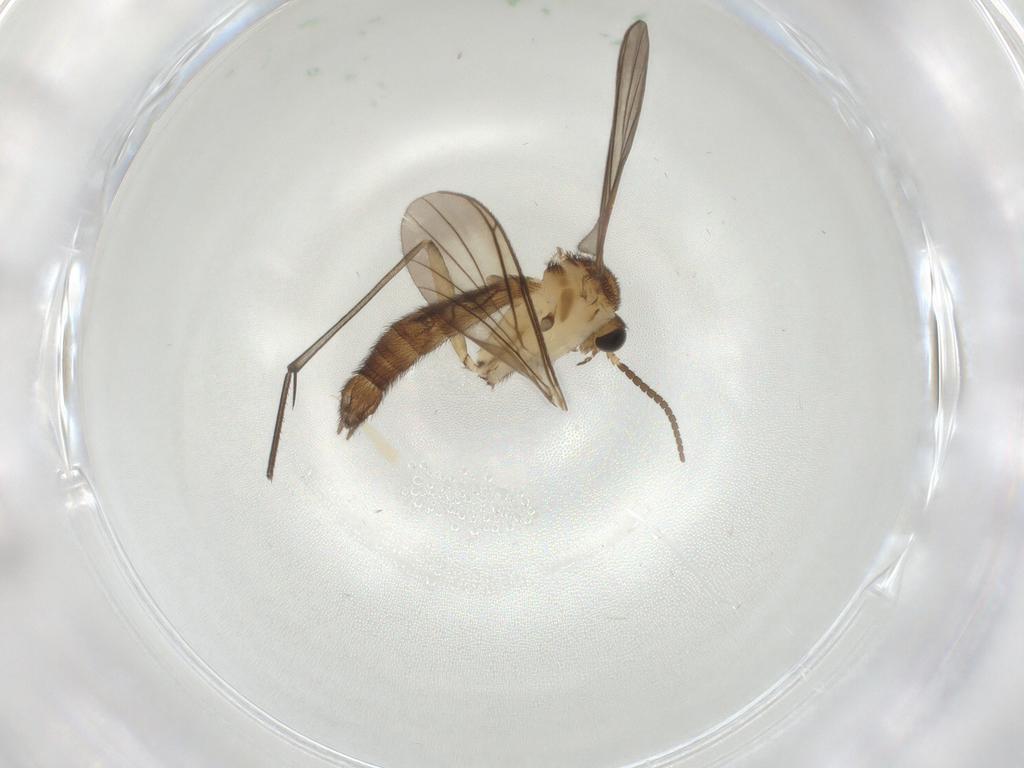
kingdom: Animalia
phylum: Arthropoda
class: Insecta
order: Diptera
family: Keroplatidae
